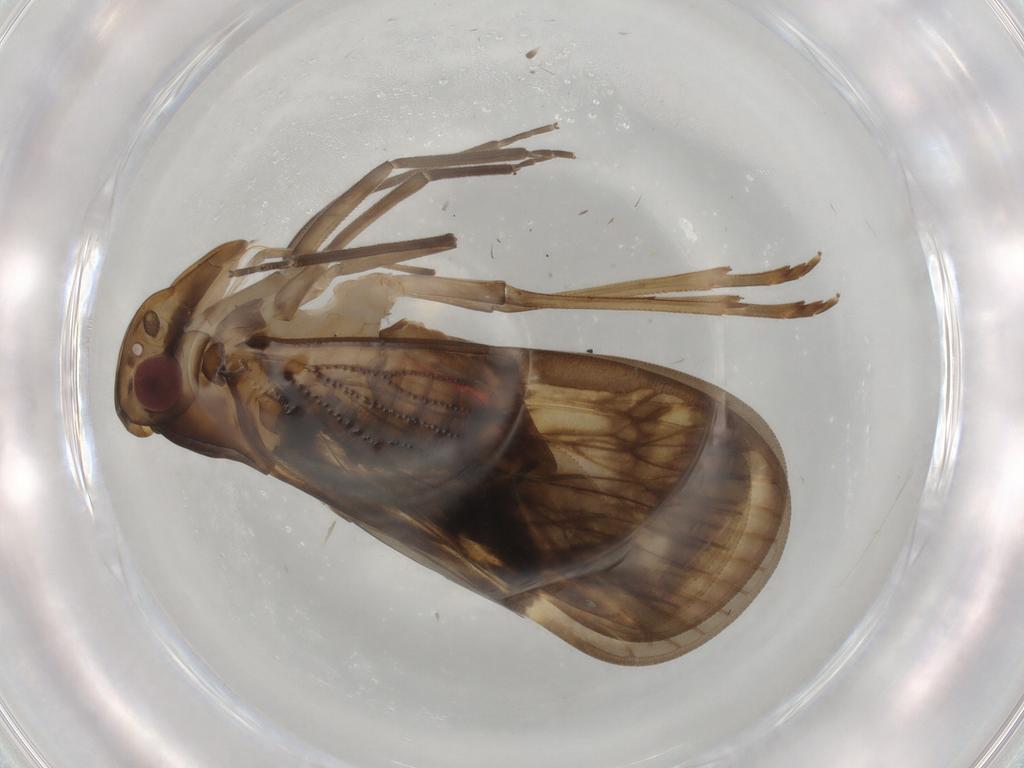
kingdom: Animalia
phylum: Arthropoda
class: Insecta
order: Hemiptera
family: Cixiidae
